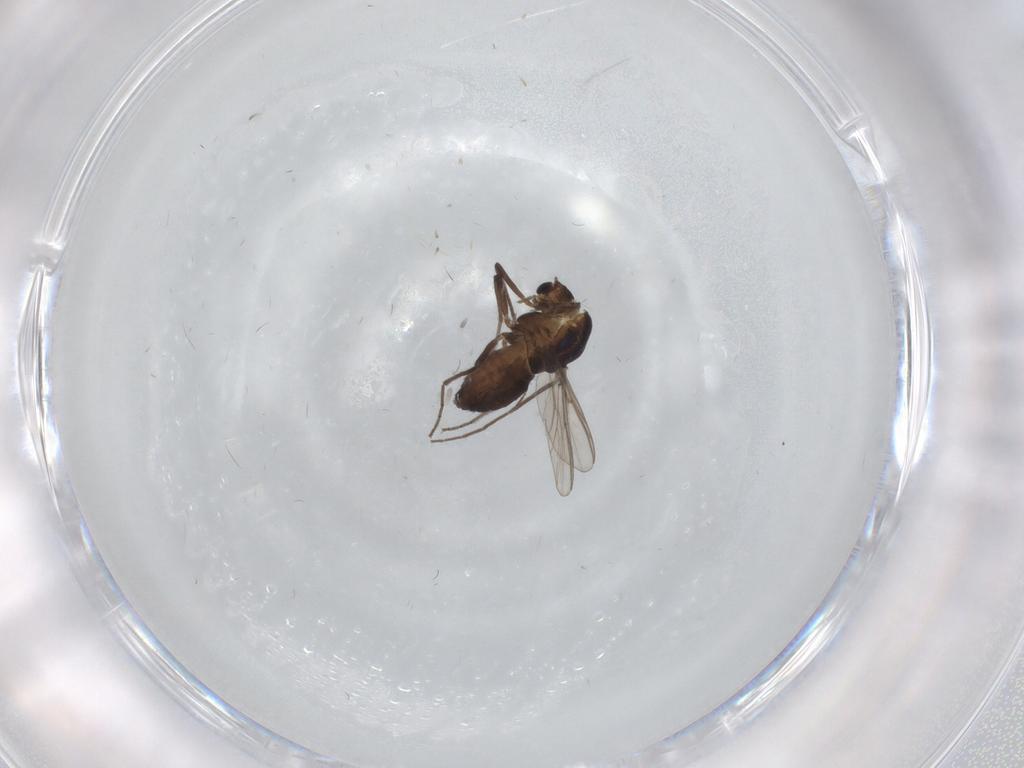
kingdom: Animalia
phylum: Arthropoda
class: Insecta
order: Diptera
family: Chironomidae
